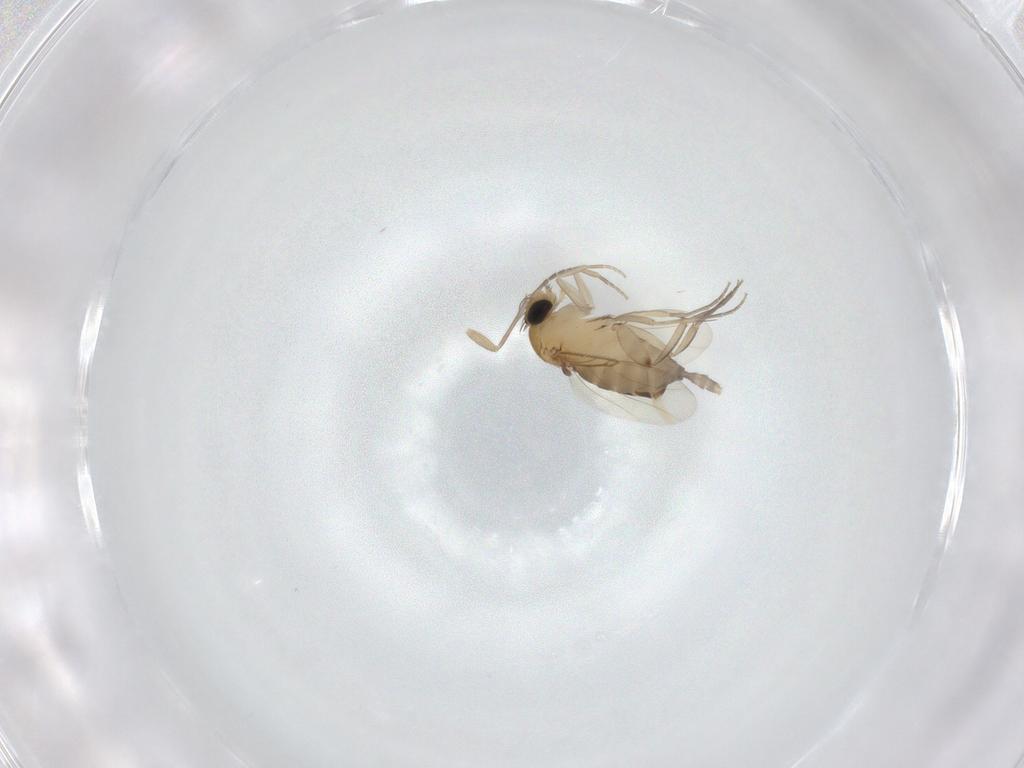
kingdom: Animalia
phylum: Arthropoda
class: Insecta
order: Diptera
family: Phoridae
